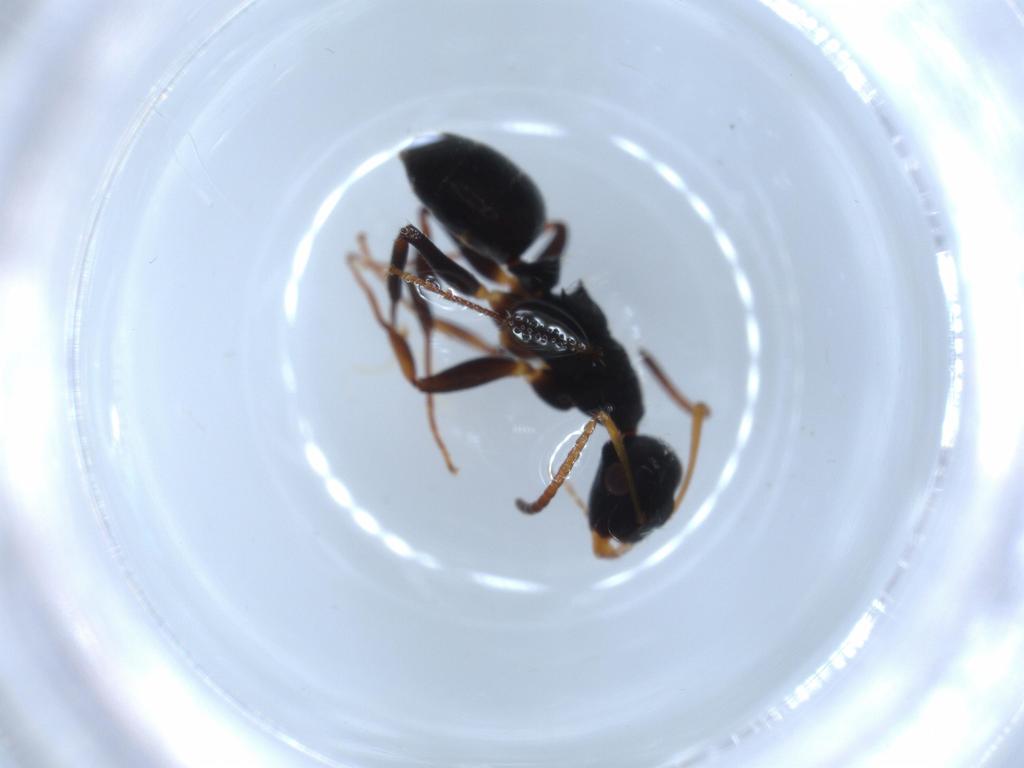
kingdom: Animalia
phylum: Arthropoda
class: Insecta
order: Hymenoptera
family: Formicidae
